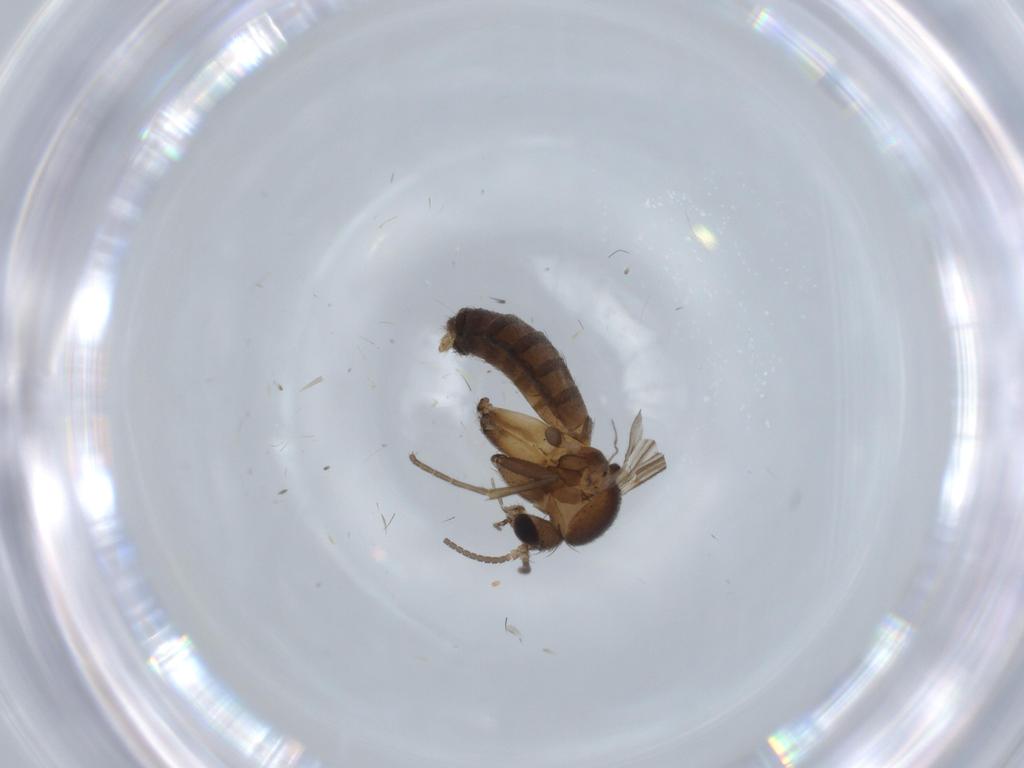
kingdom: Animalia
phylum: Arthropoda
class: Insecta
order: Diptera
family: Mycetophilidae
